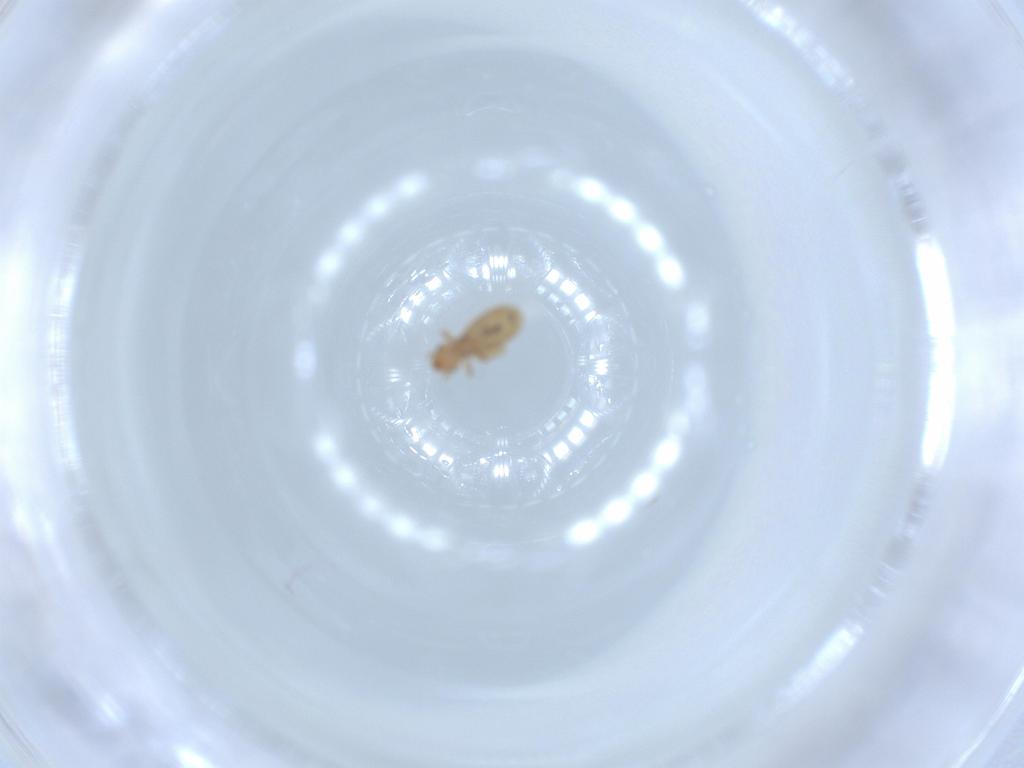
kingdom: Animalia
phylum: Arthropoda
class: Insecta
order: Psocodea
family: Liposcelididae
